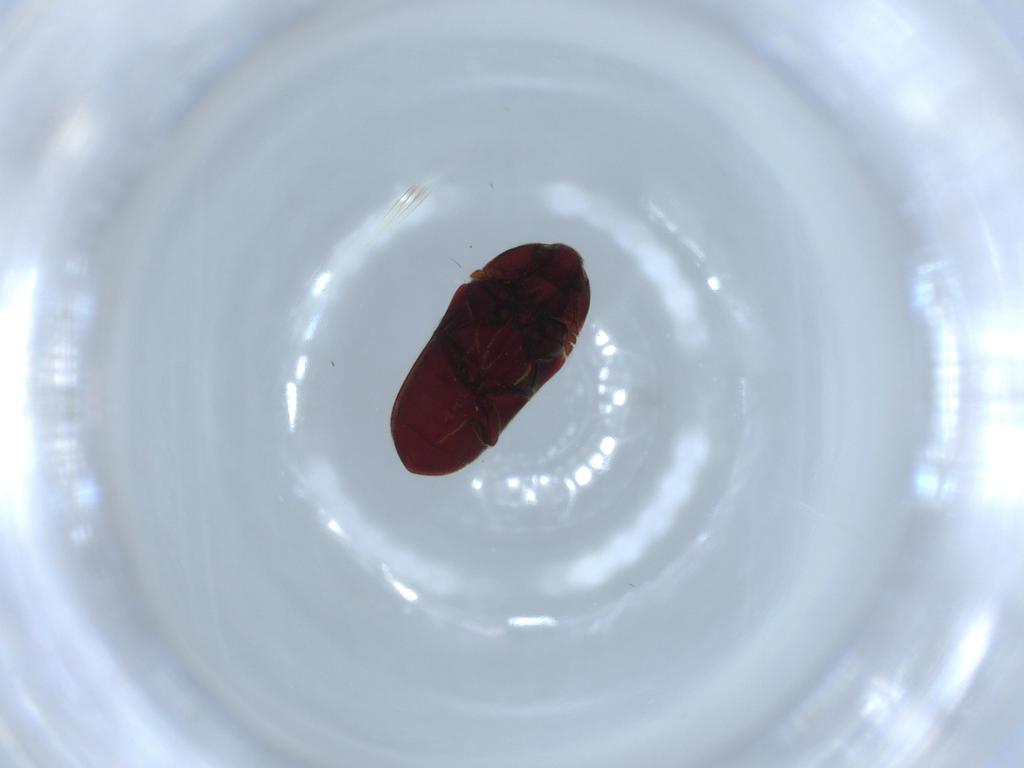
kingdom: Animalia
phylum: Arthropoda
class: Insecta
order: Coleoptera
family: Throscidae
